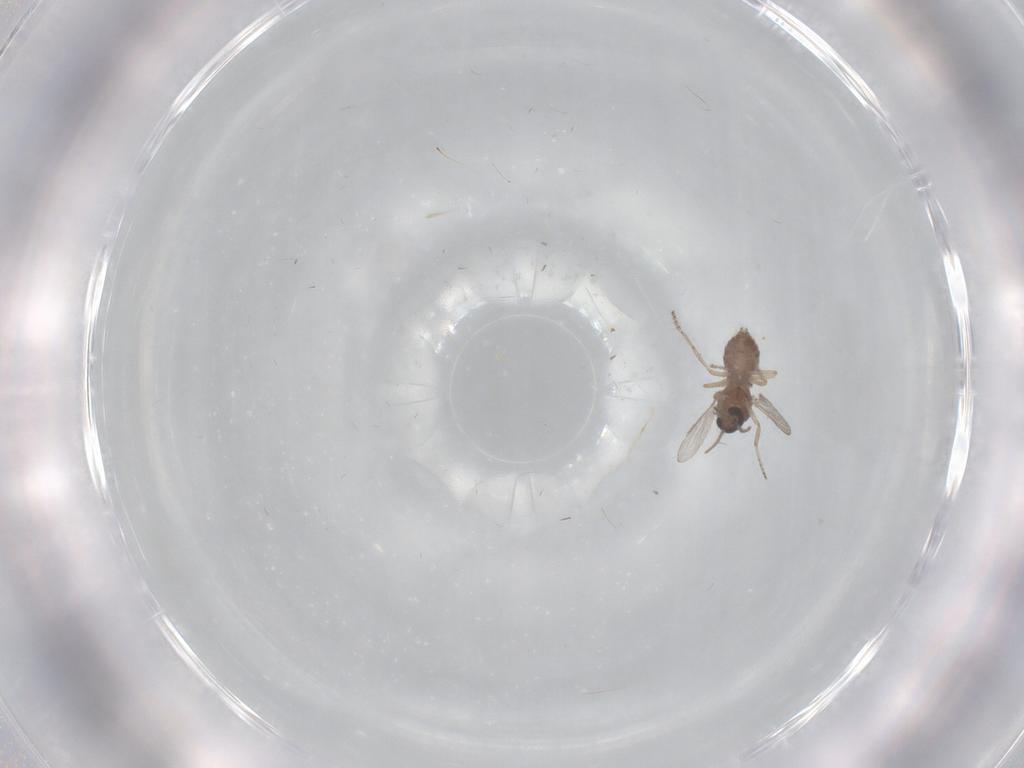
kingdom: Animalia
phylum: Arthropoda
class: Insecta
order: Diptera
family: Ceratopogonidae
